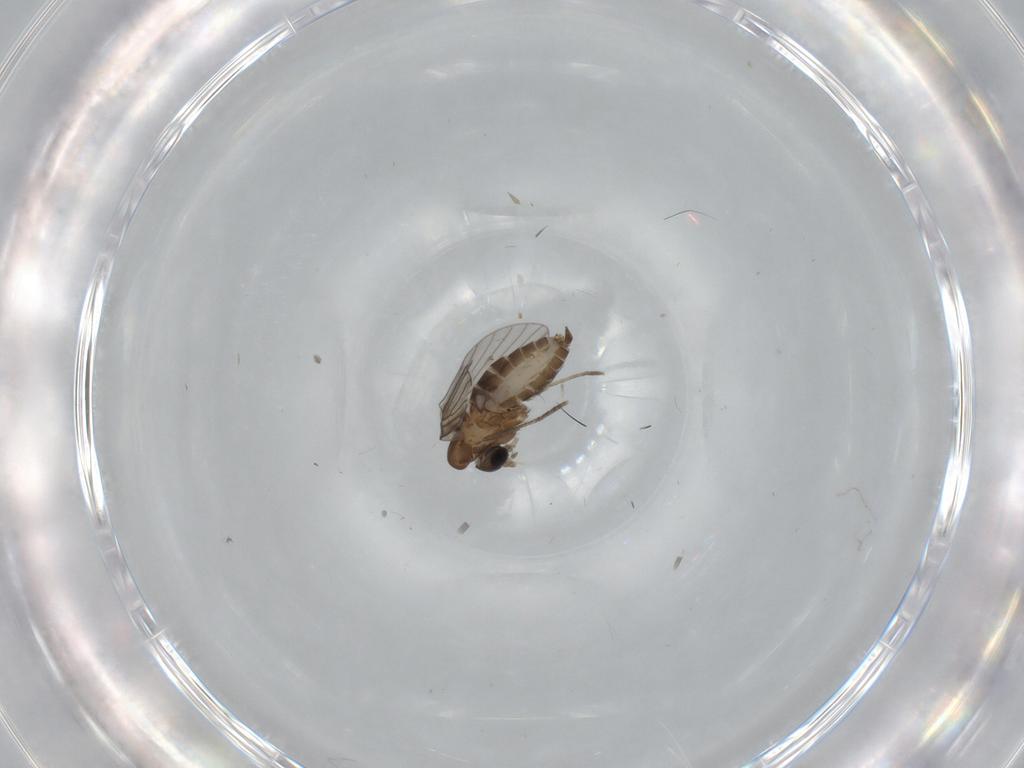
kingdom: Animalia
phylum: Arthropoda
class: Insecta
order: Diptera
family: Psychodidae
